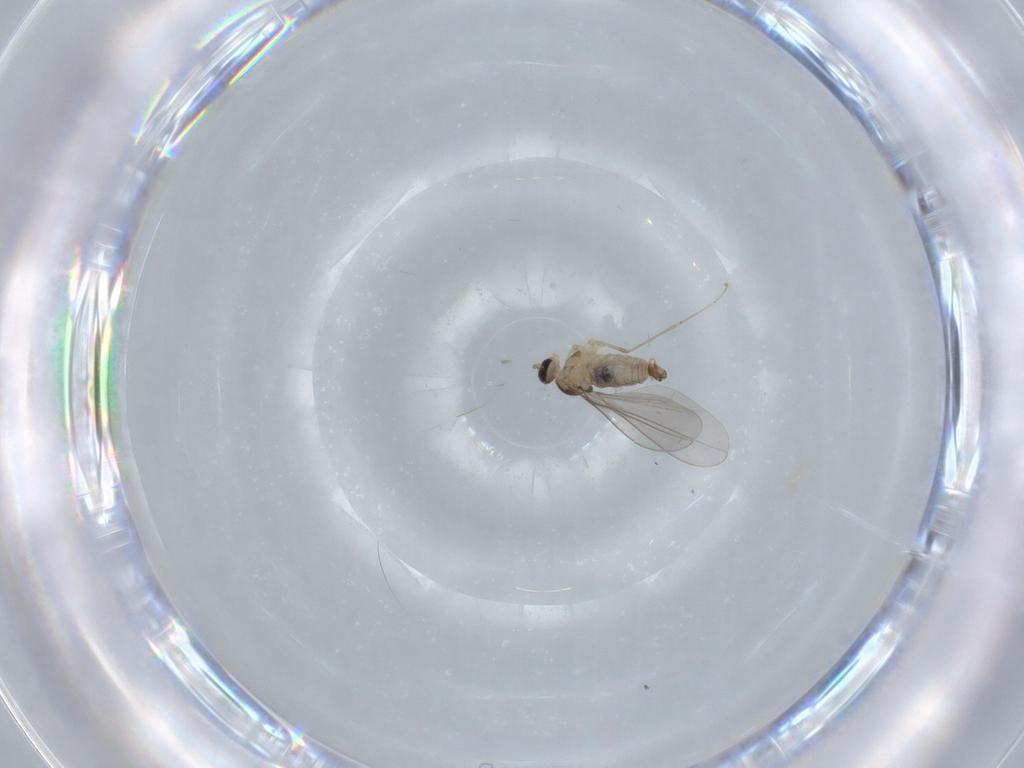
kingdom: Animalia
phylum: Arthropoda
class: Insecta
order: Diptera
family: Cecidomyiidae
